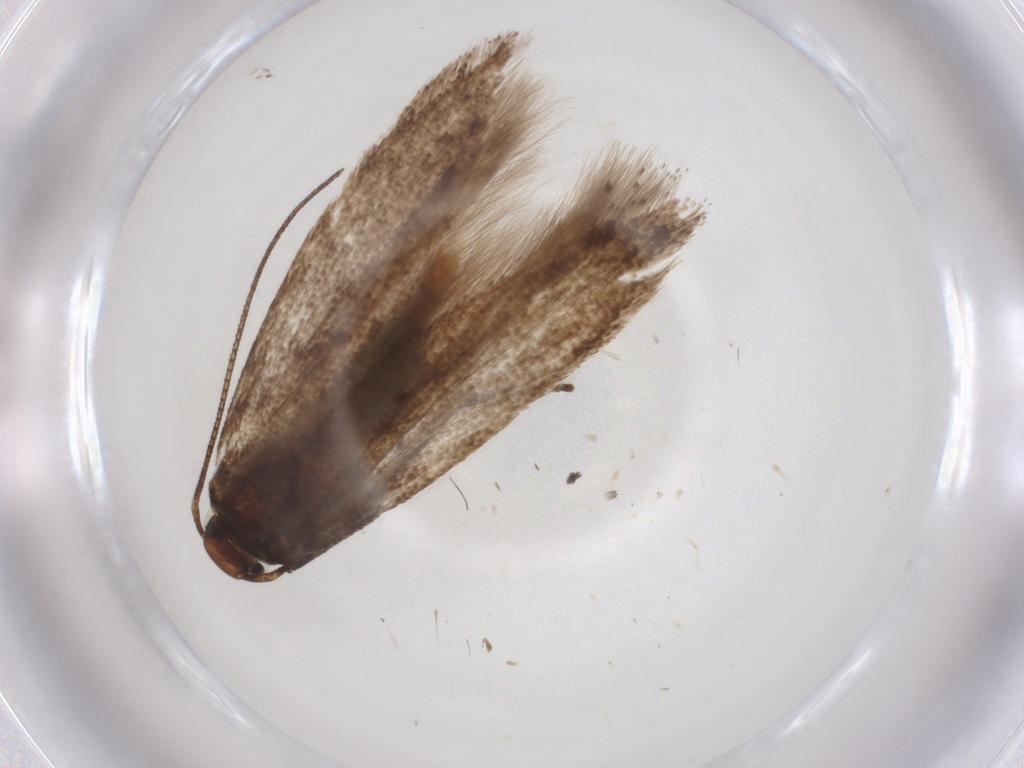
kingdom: Animalia
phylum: Arthropoda
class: Insecta
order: Lepidoptera
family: Gelechiidae
